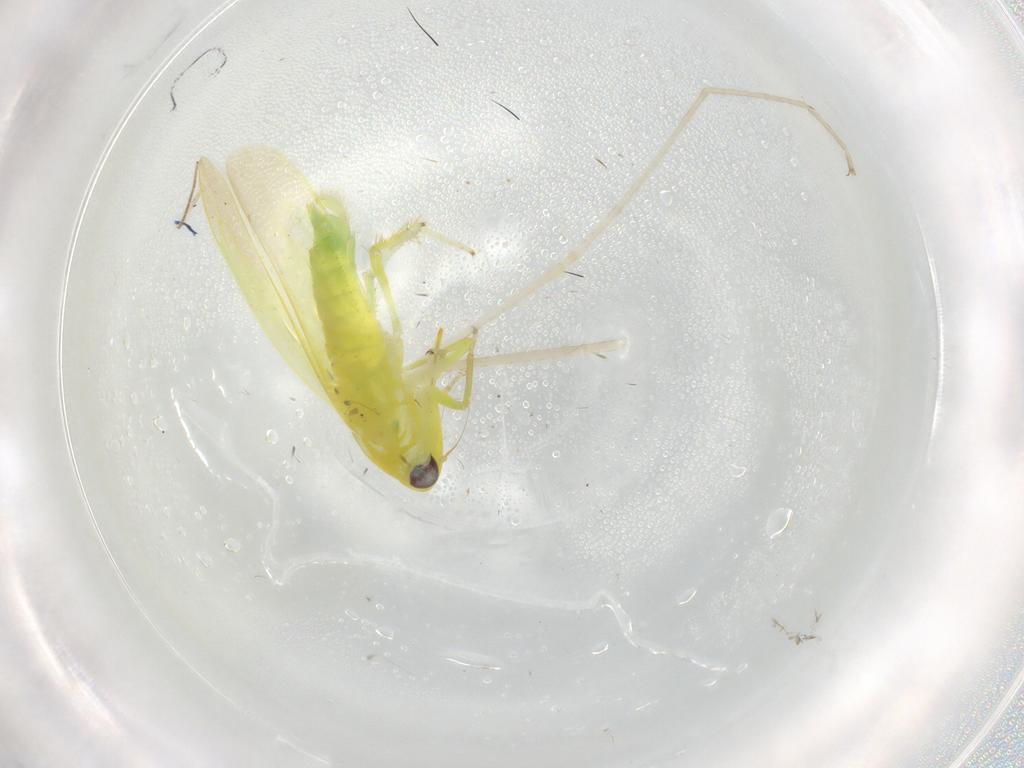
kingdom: Animalia
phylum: Arthropoda
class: Insecta
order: Hemiptera
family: Cicadellidae
